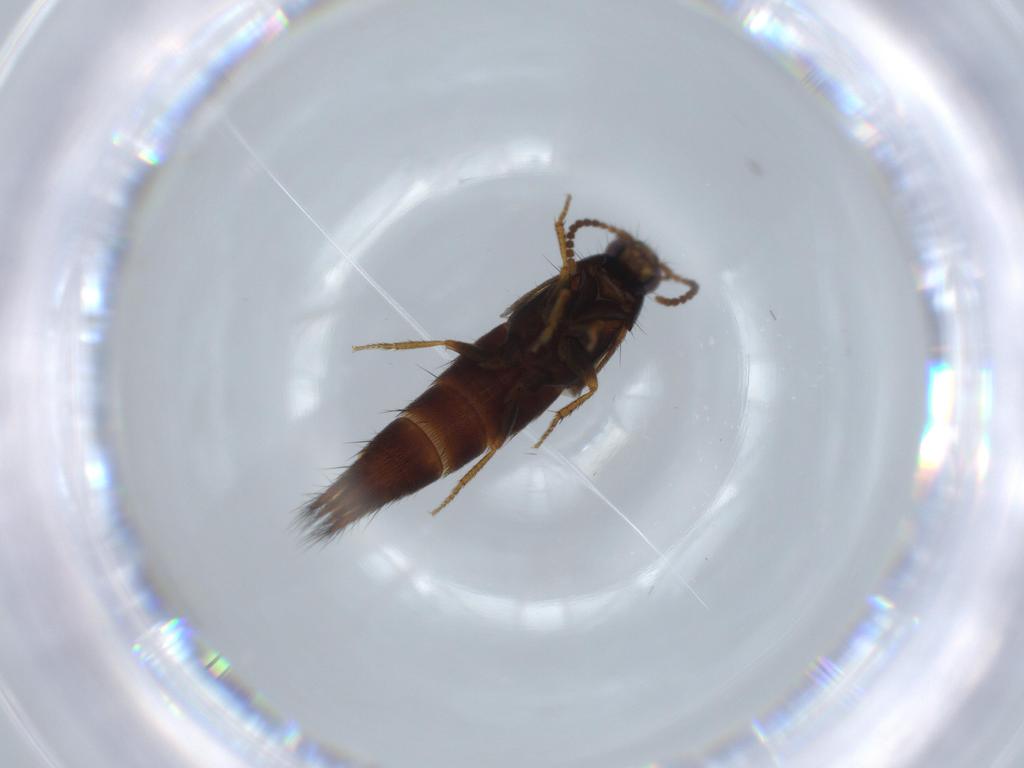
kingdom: Animalia
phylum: Arthropoda
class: Insecta
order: Coleoptera
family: Staphylinidae
